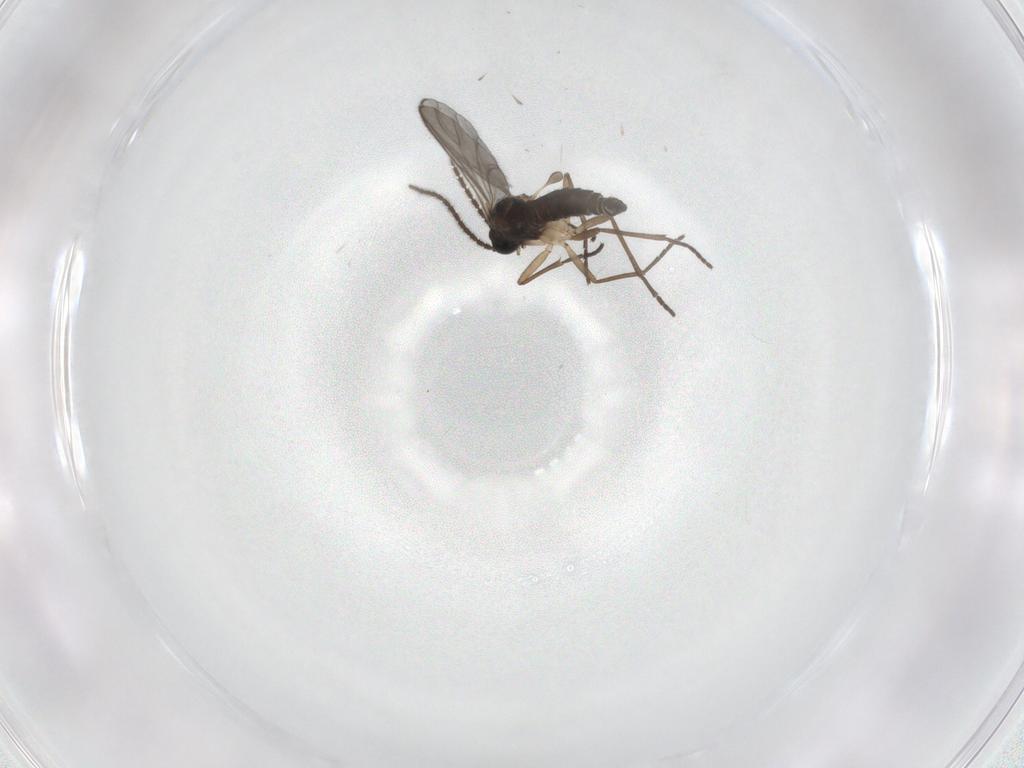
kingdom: Animalia
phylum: Arthropoda
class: Insecta
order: Diptera
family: Sciaridae
